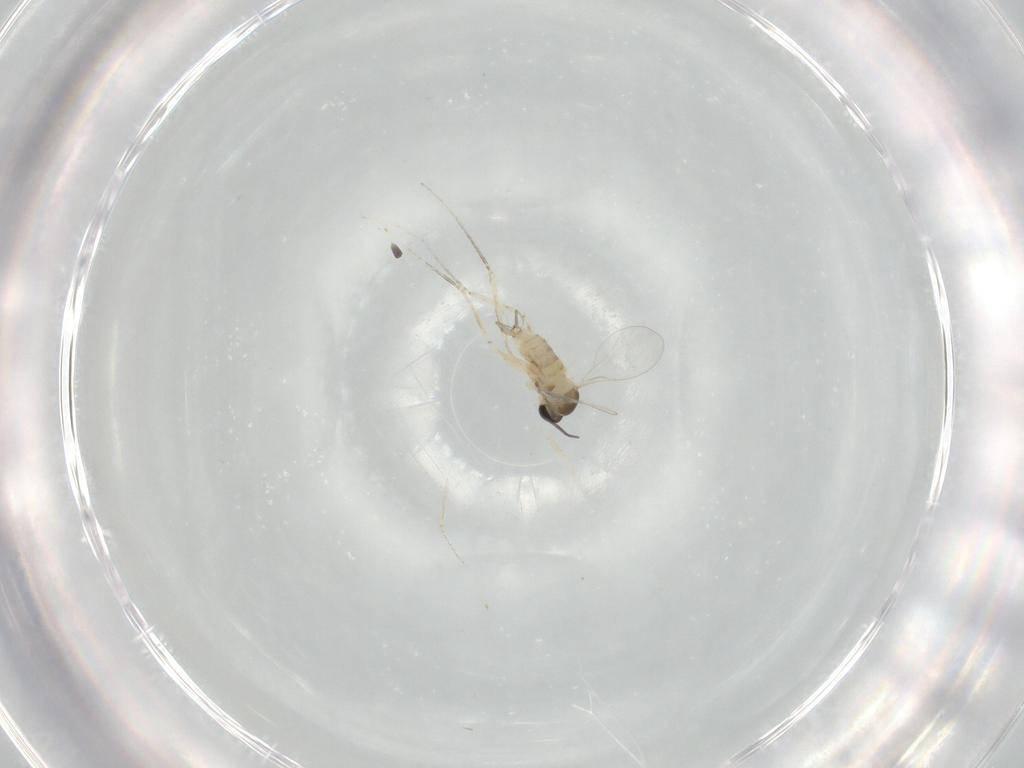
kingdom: Animalia
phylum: Arthropoda
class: Insecta
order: Diptera
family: Cecidomyiidae
